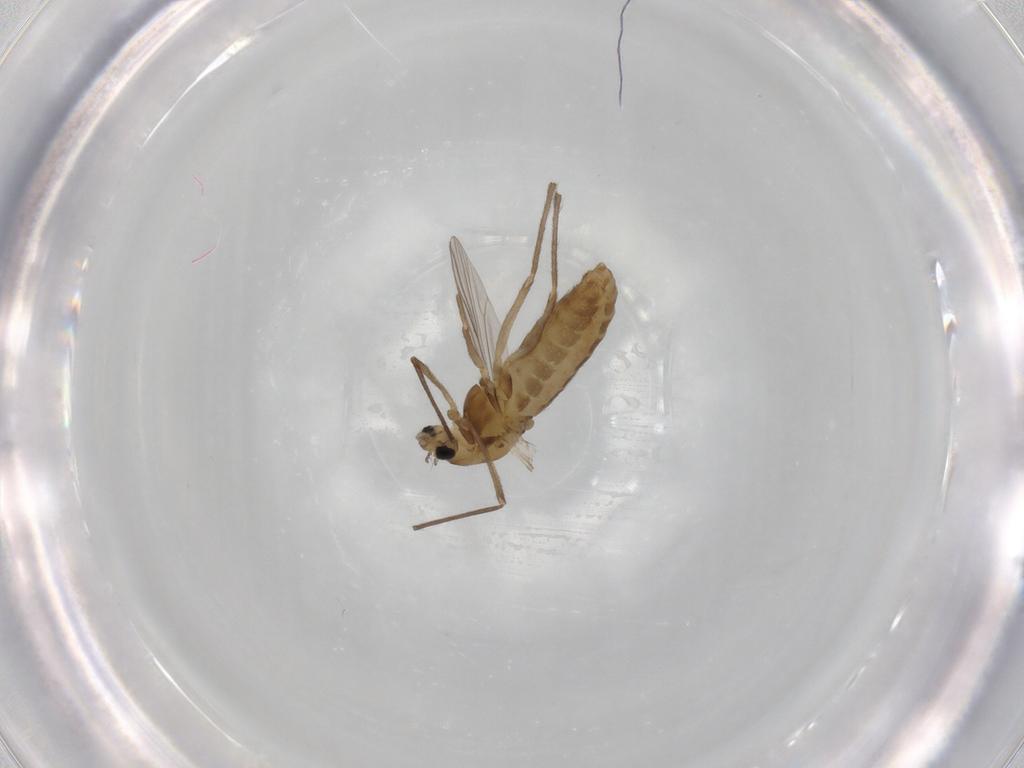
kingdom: Animalia
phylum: Arthropoda
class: Insecta
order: Diptera
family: Chironomidae
